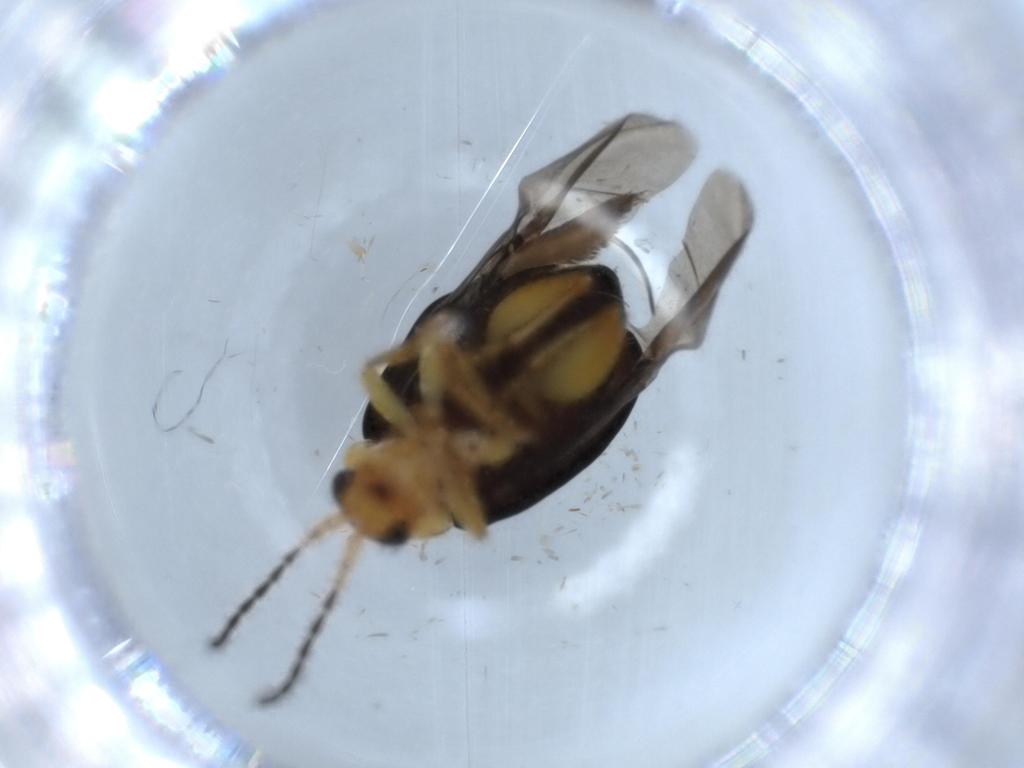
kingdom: Animalia
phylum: Arthropoda
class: Insecta
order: Coleoptera
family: Chrysomelidae
